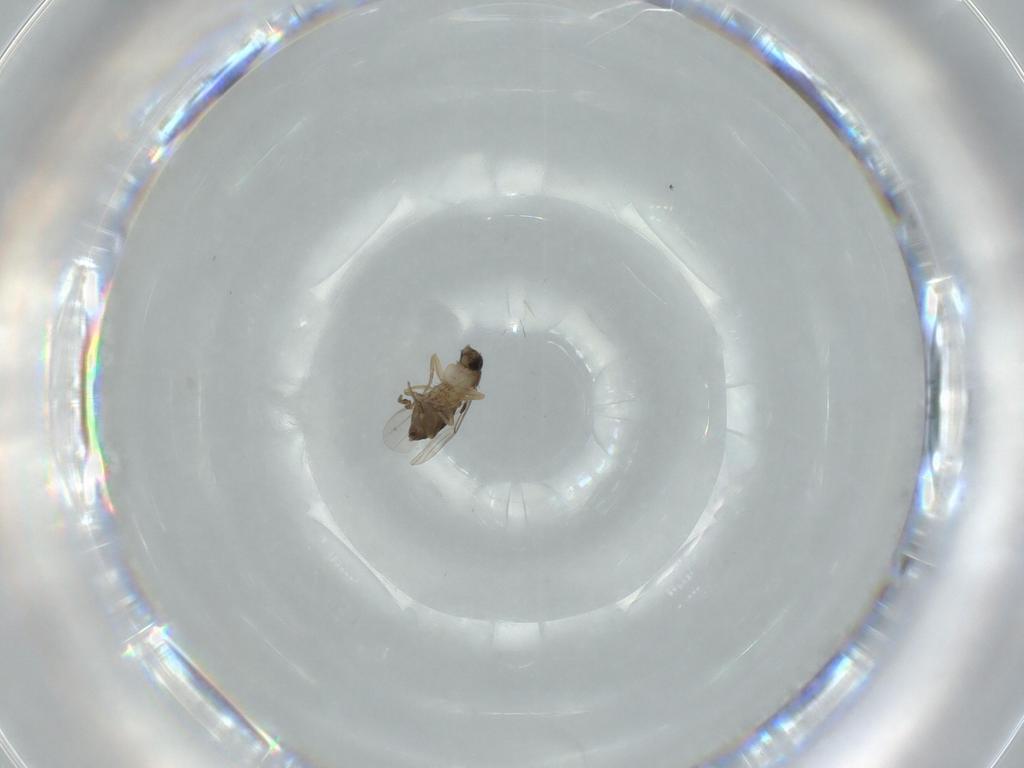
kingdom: Animalia
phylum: Arthropoda
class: Insecta
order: Diptera
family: Phoridae
